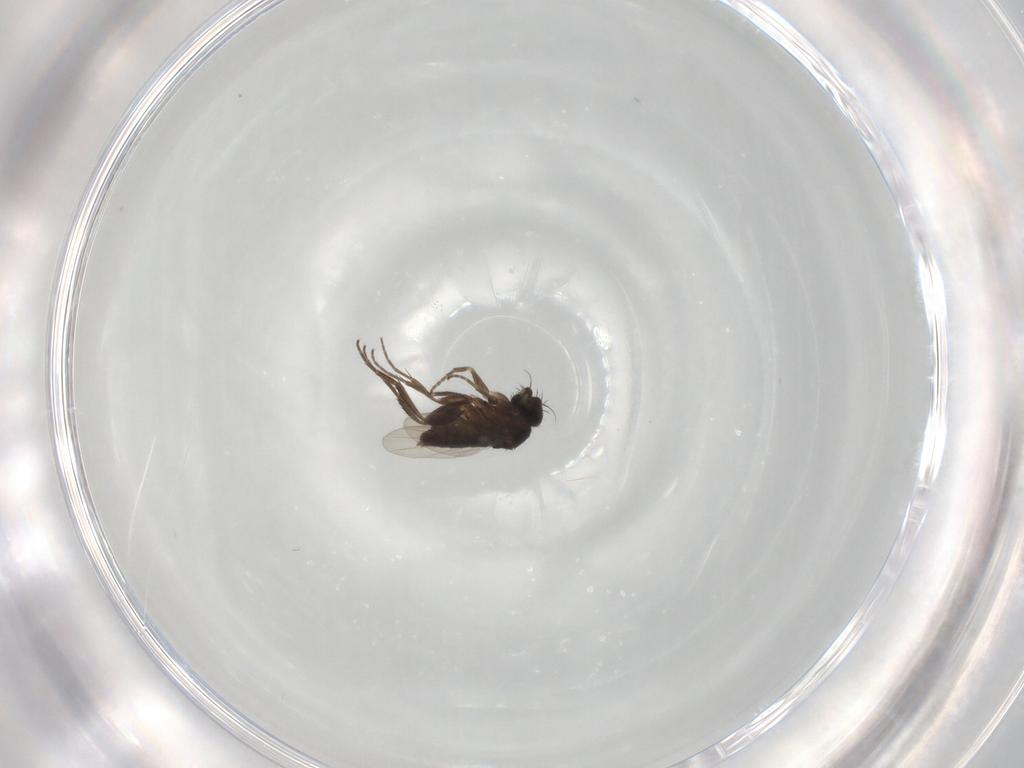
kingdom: Animalia
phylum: Arthropoda
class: Insecta
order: Diptera
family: Phoridae
